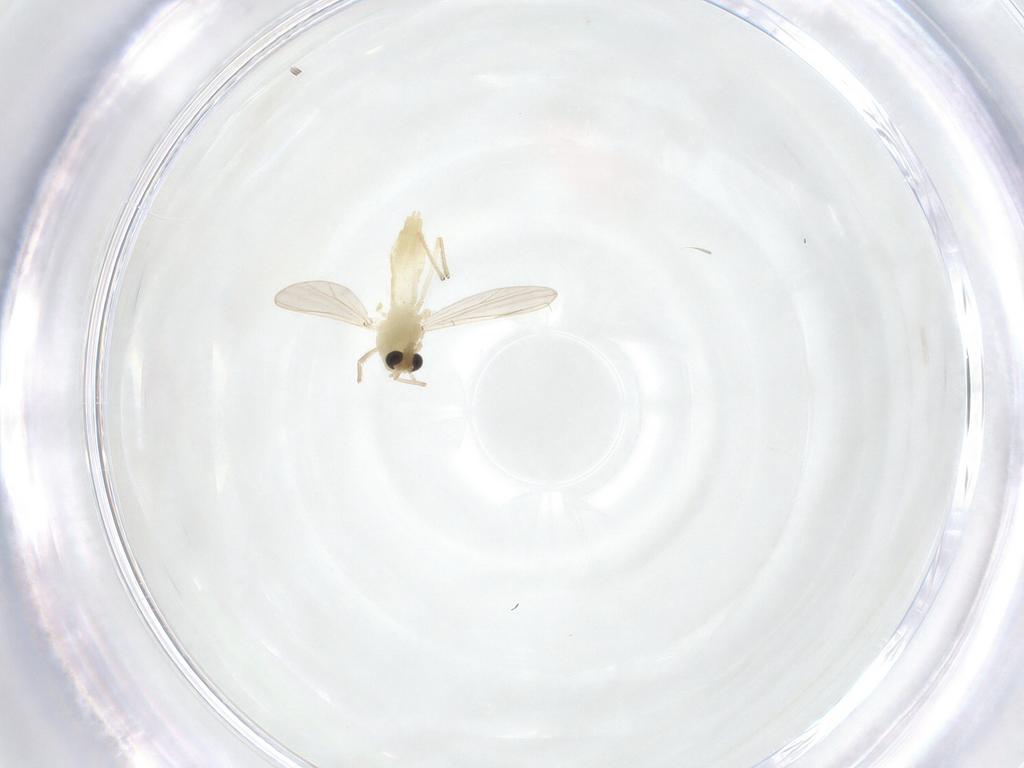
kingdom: Animalia
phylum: Arthropoda
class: Insecta
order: Diptera
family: Chironomidae
